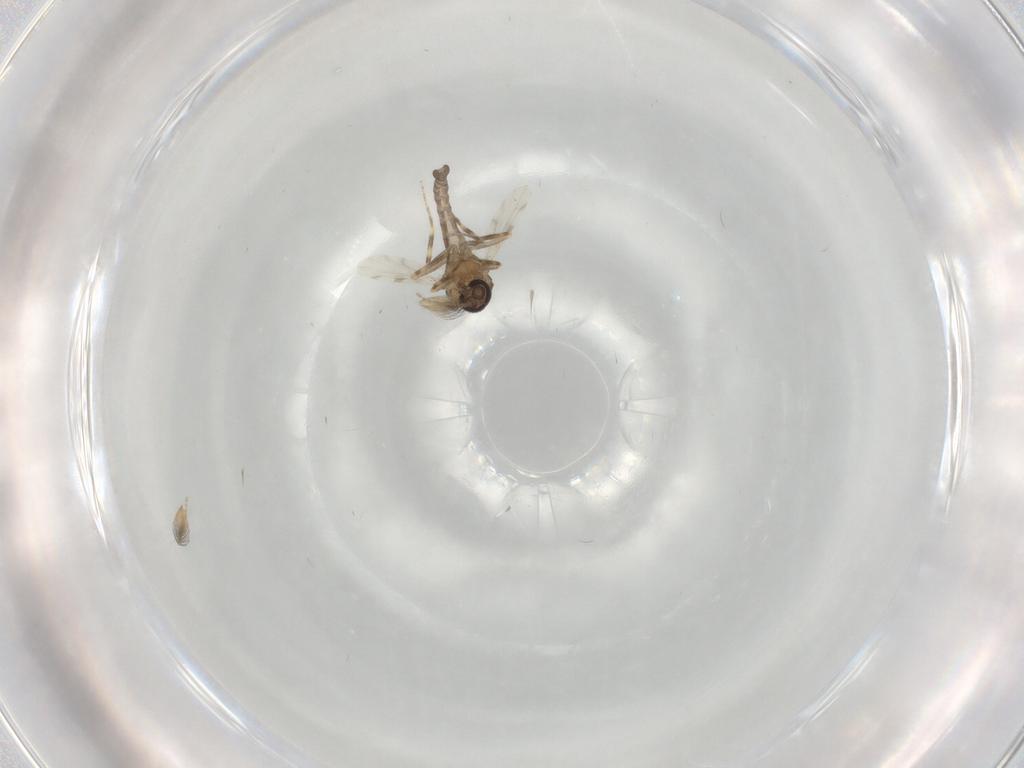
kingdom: Animalia
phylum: Arthropoda
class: Insecta
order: Diptera
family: Ceratopogonidae
